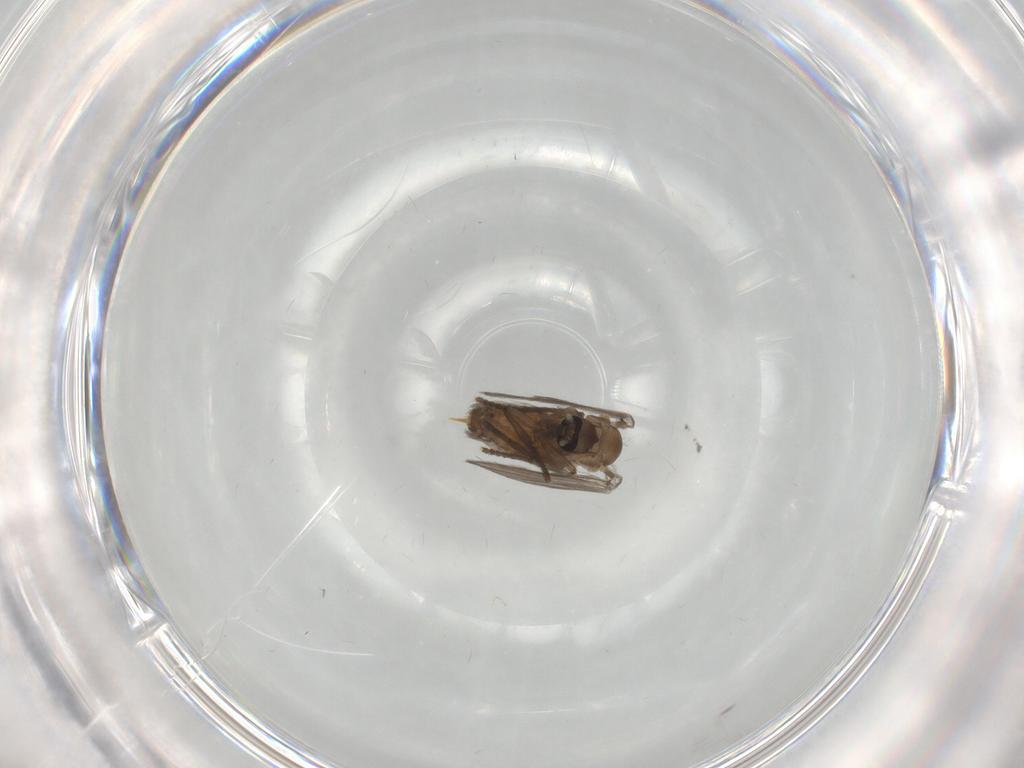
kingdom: Animalia
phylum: Arthropoda
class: Insecta
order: Diptera
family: Chironomidae
